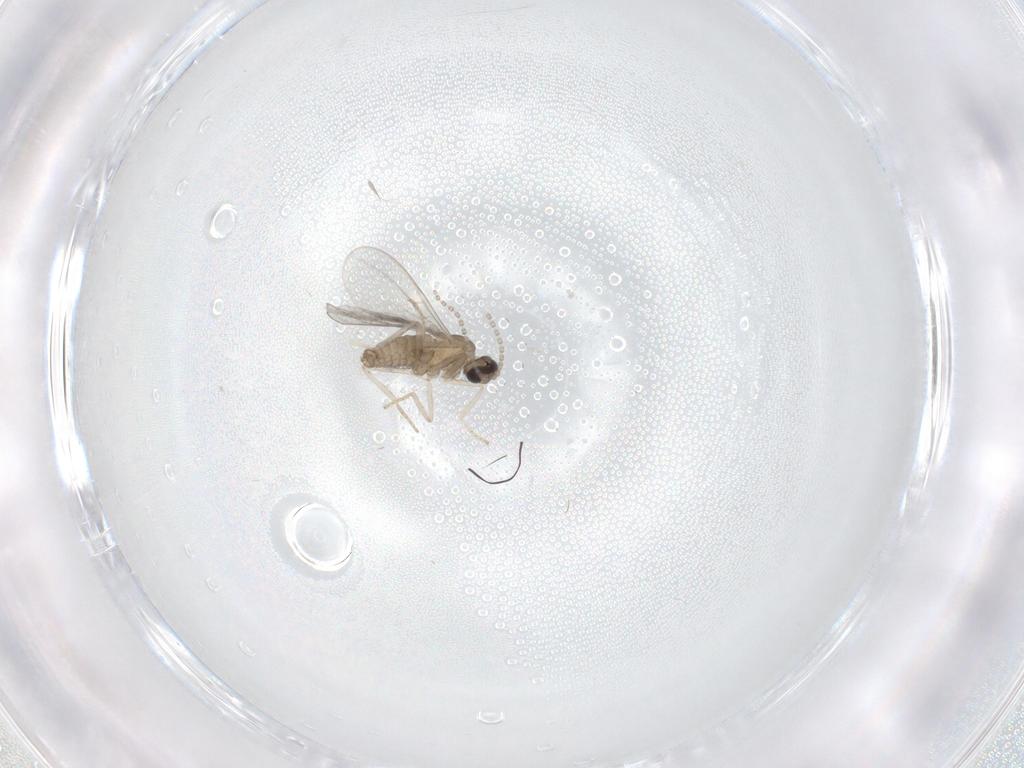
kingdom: Animalia
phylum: Arthropoda
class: Insecta
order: Diptera
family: Cecidomyiidae
